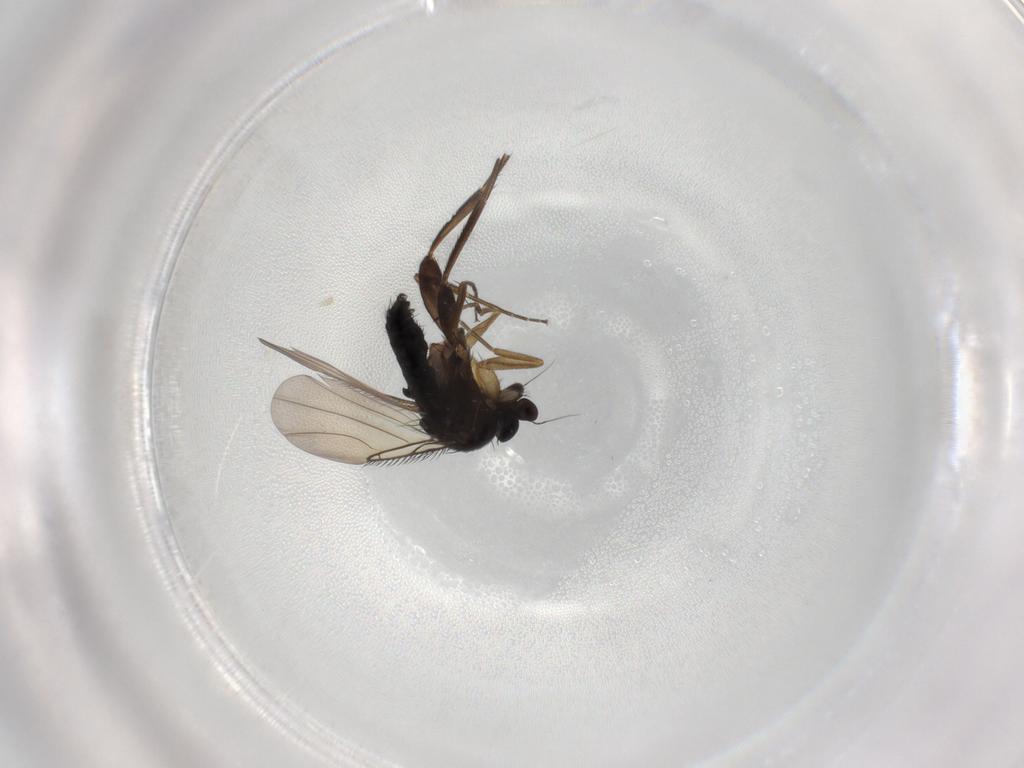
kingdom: Animalia
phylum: Arthropoda
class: Insecta
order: Diptera
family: Phoridae
